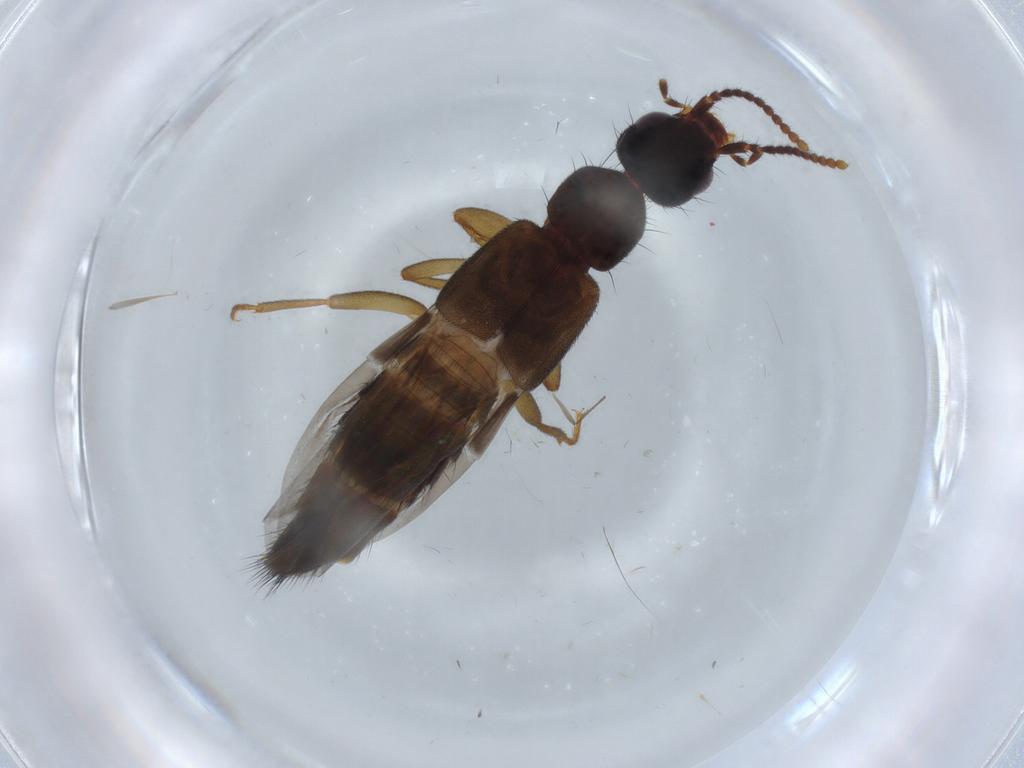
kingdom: Animalia
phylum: Arthropoda
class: Insecta
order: Coleoptera
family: Staphylinidae
